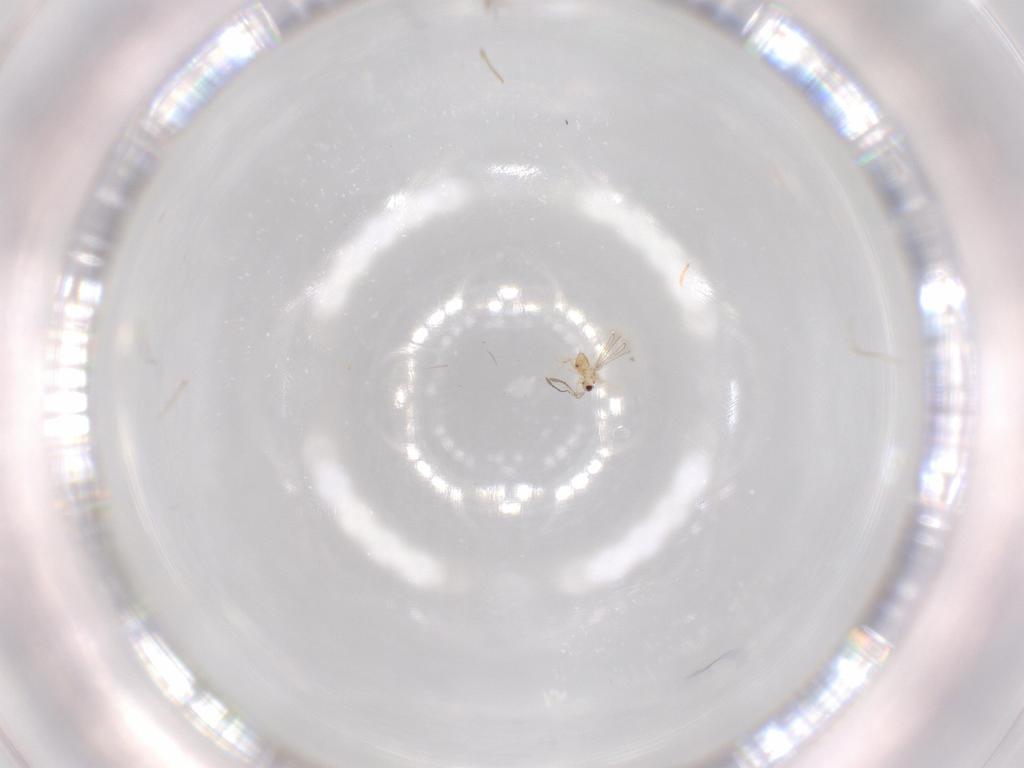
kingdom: Animalia
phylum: Arthropoda
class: Insecta
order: Hymenoptera
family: Mymaridae
